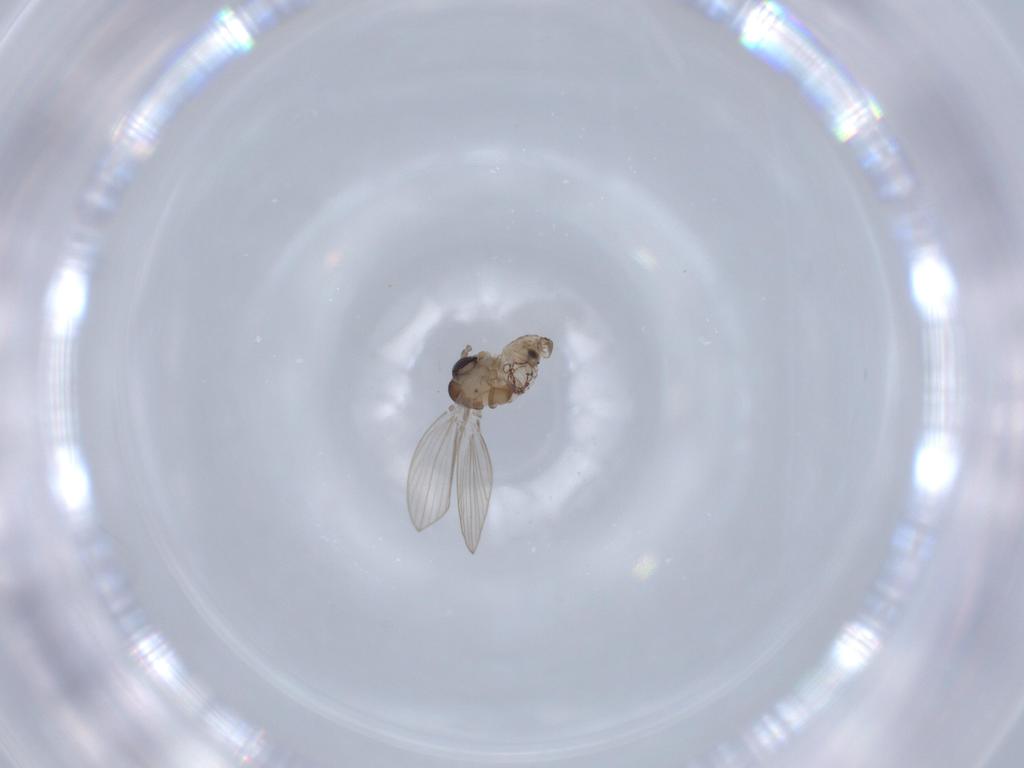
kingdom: Animalia
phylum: Arthropoda
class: Insecta
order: Diptera
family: Psychodidae
